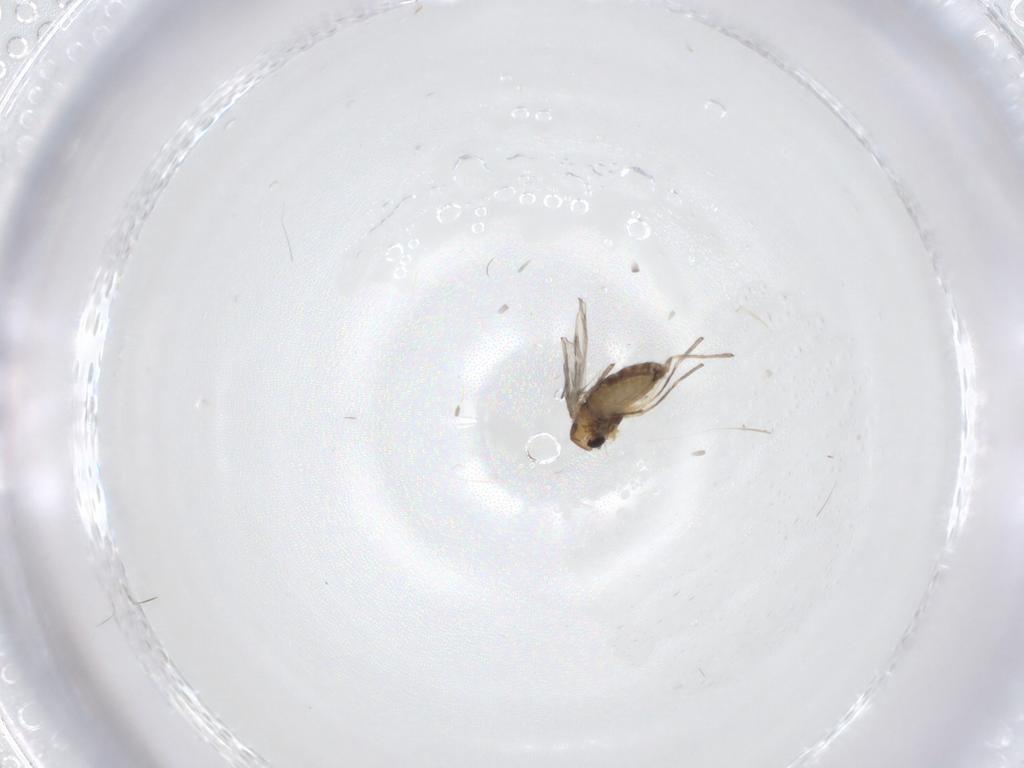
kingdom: Animalia
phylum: Arthropoda
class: Insecta
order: Diptera
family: Chironomidae
